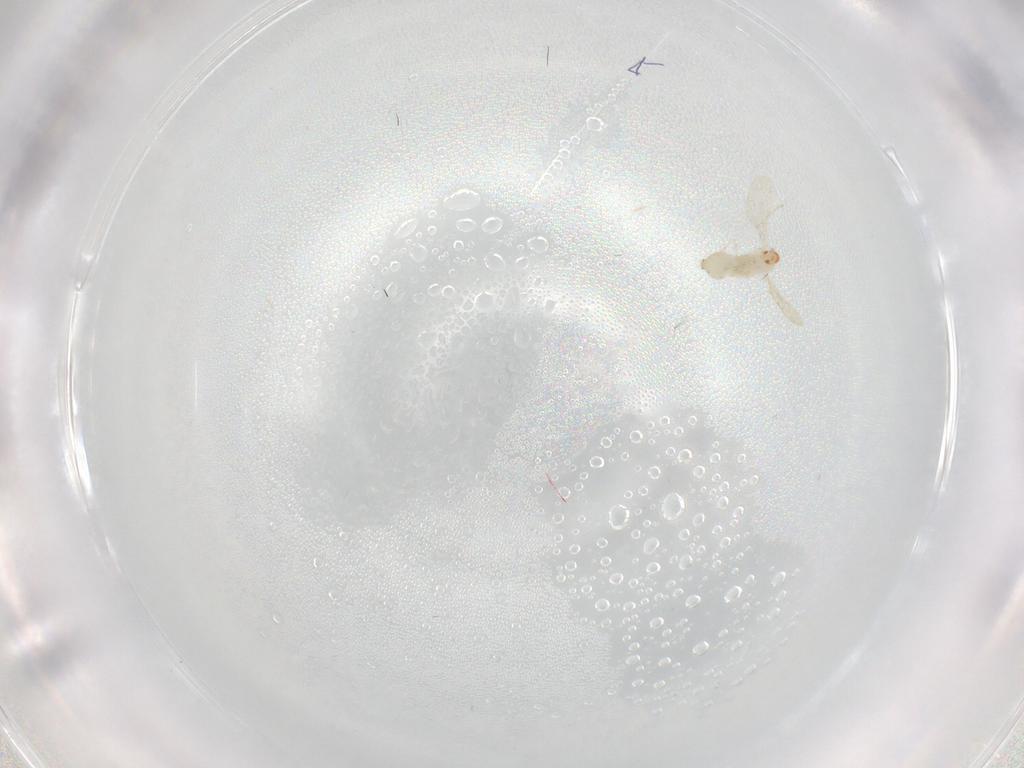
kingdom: Animalia
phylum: Arthropoda
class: Insecta
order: Diptera
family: Cecidomyiidae
